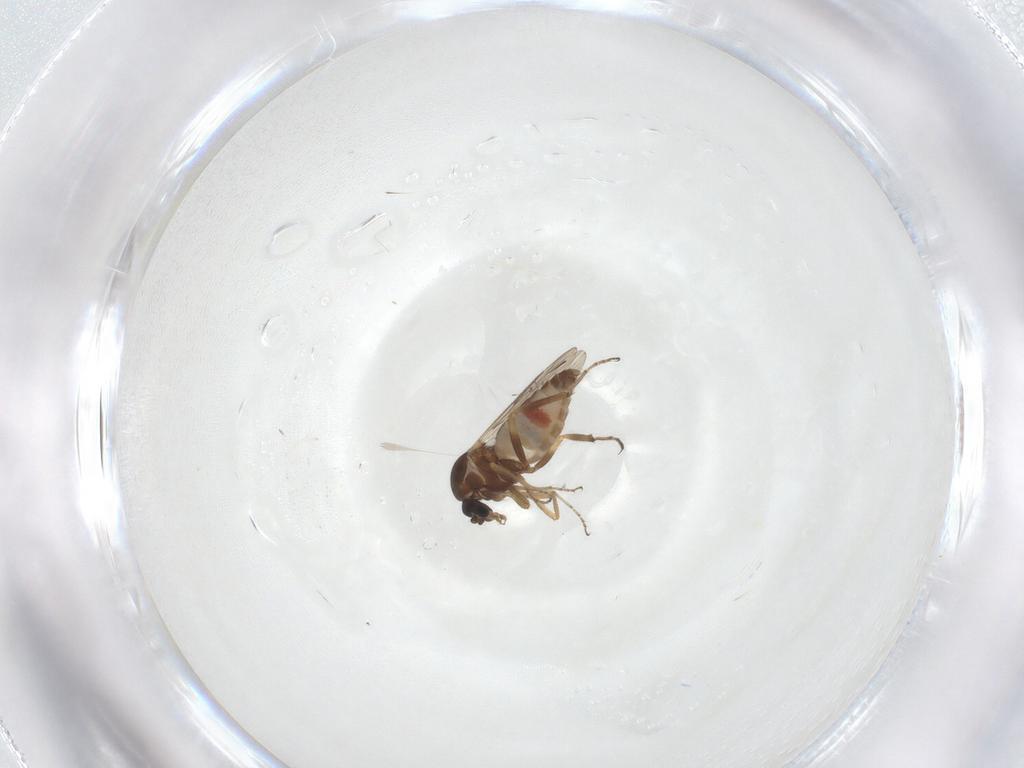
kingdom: Animalia
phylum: Arthropoda
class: Insecta
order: Diptera
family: Ceratopogonidae
